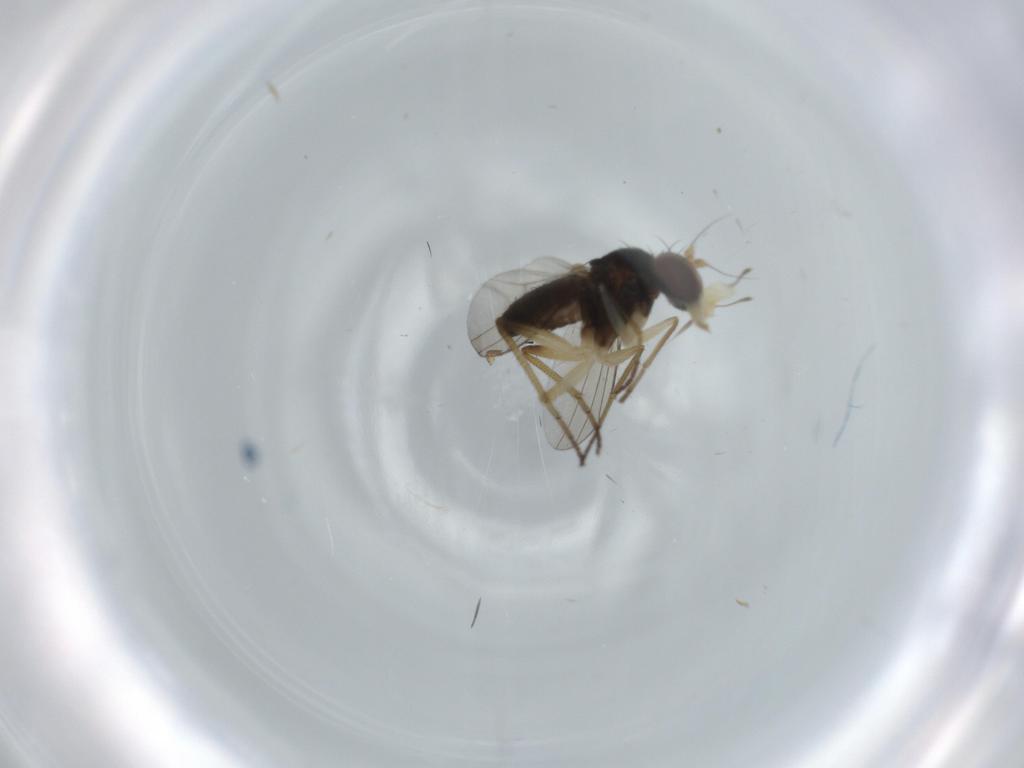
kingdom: Animalia
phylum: Arthropoda
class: Insecta
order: Diptera
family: Dolichopodidae
